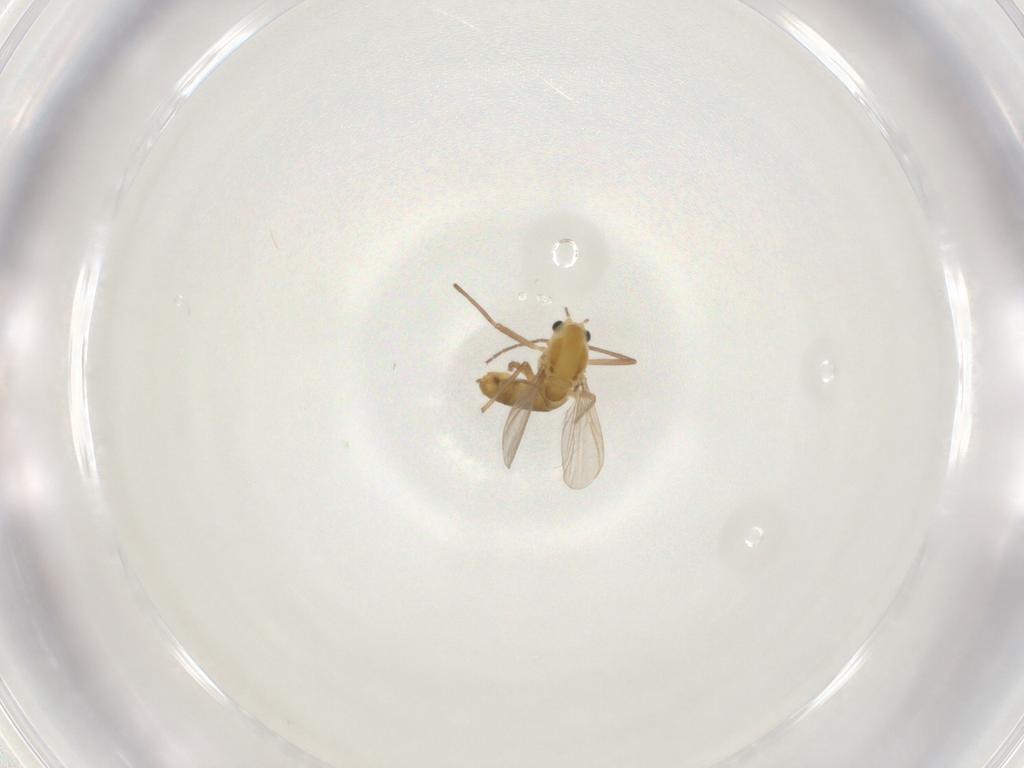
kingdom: Animalia
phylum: Arthropoda
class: Insecta
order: Diptera
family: Chironomidae
